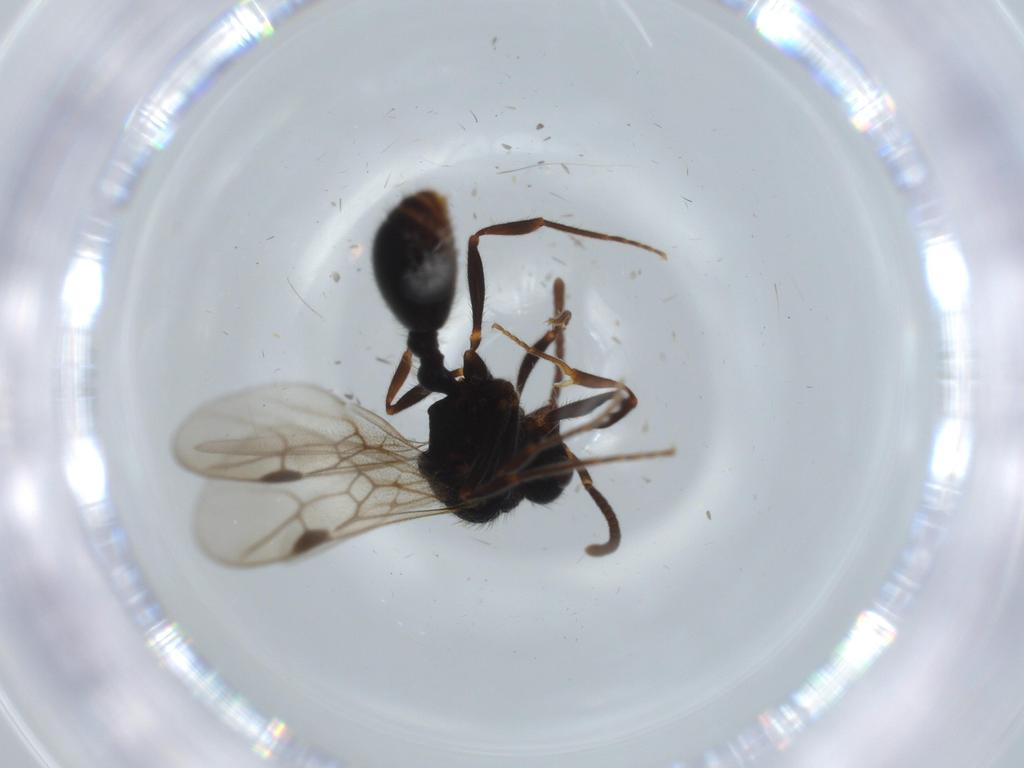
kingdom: Animalia
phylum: Arthropoda
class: Insecta
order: Hymenoptera
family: Formicidae
